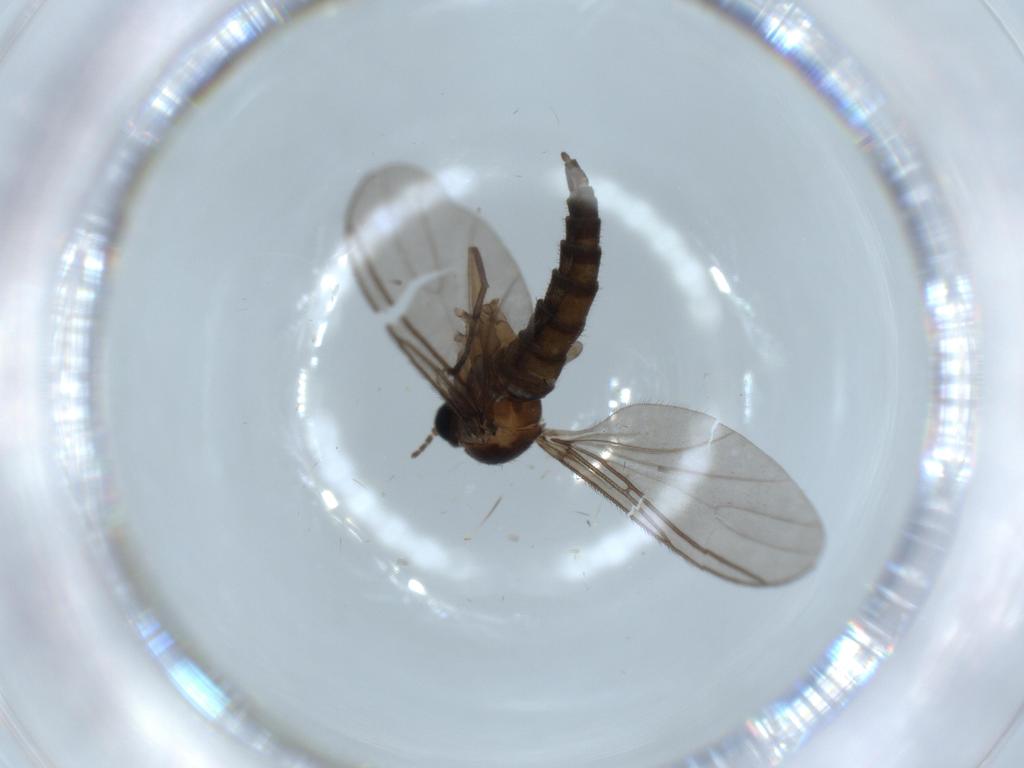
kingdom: Animalia
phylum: Arthropoda
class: Insecta
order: Diptera
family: Sciaridae
